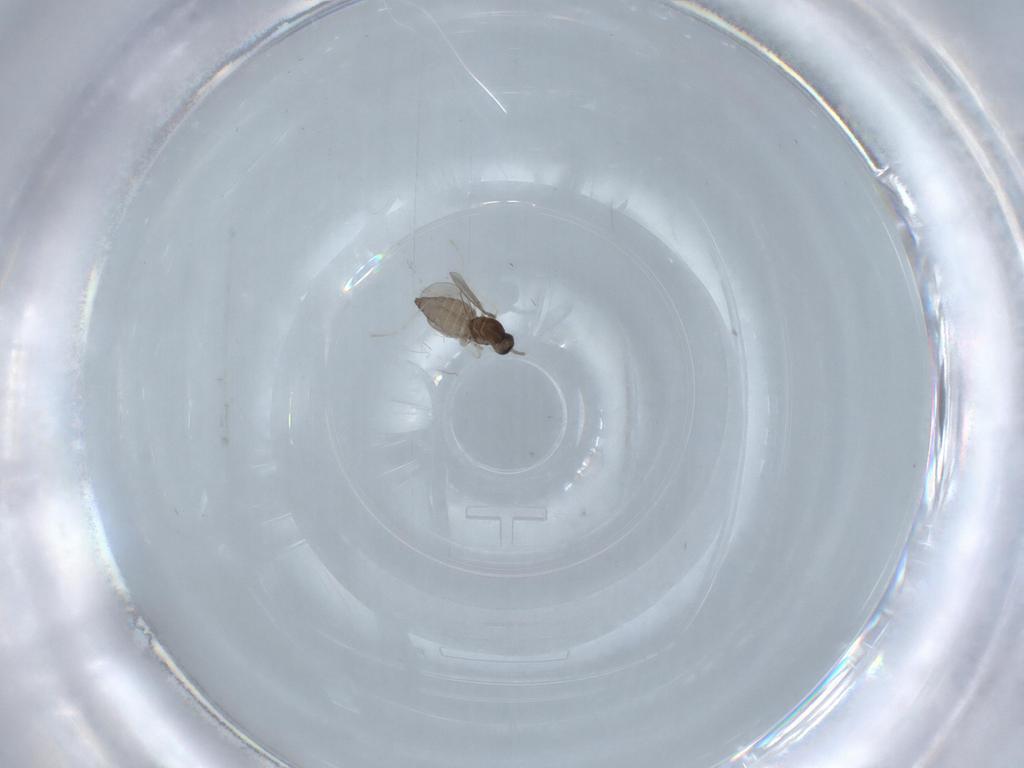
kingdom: Animalia
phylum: Arthropoda
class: Insecta
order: Diptera
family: Cecidomyiidae
